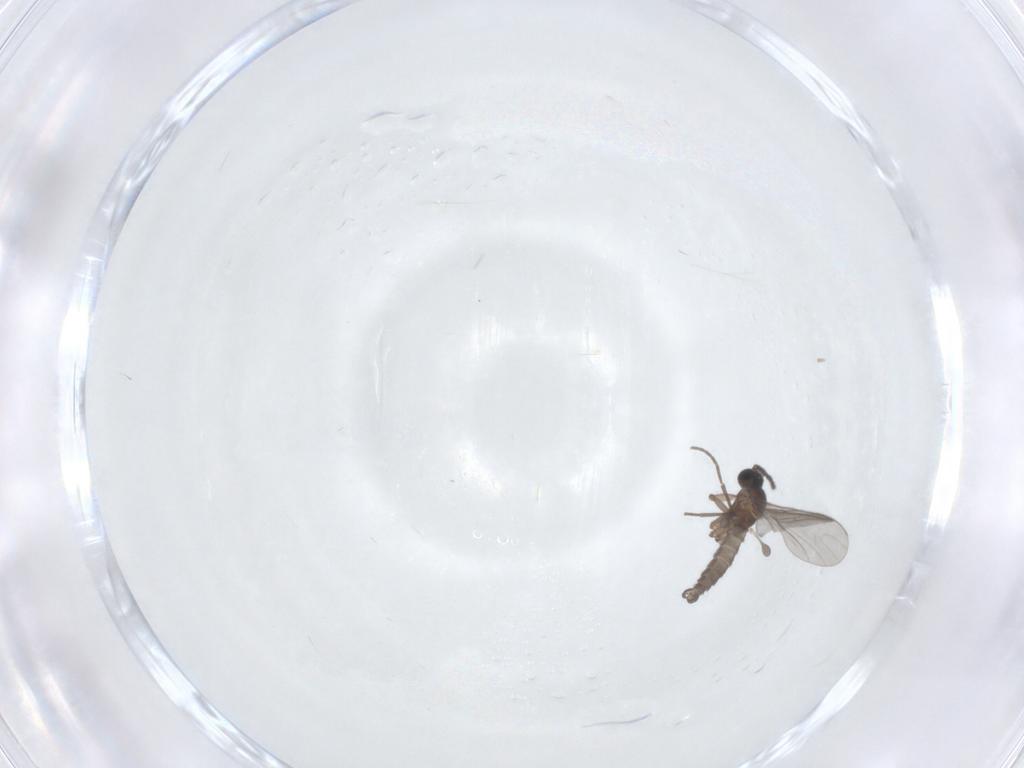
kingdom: Animalia
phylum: Arthropoda
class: Insecta
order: Diptera
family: Sciaridae
